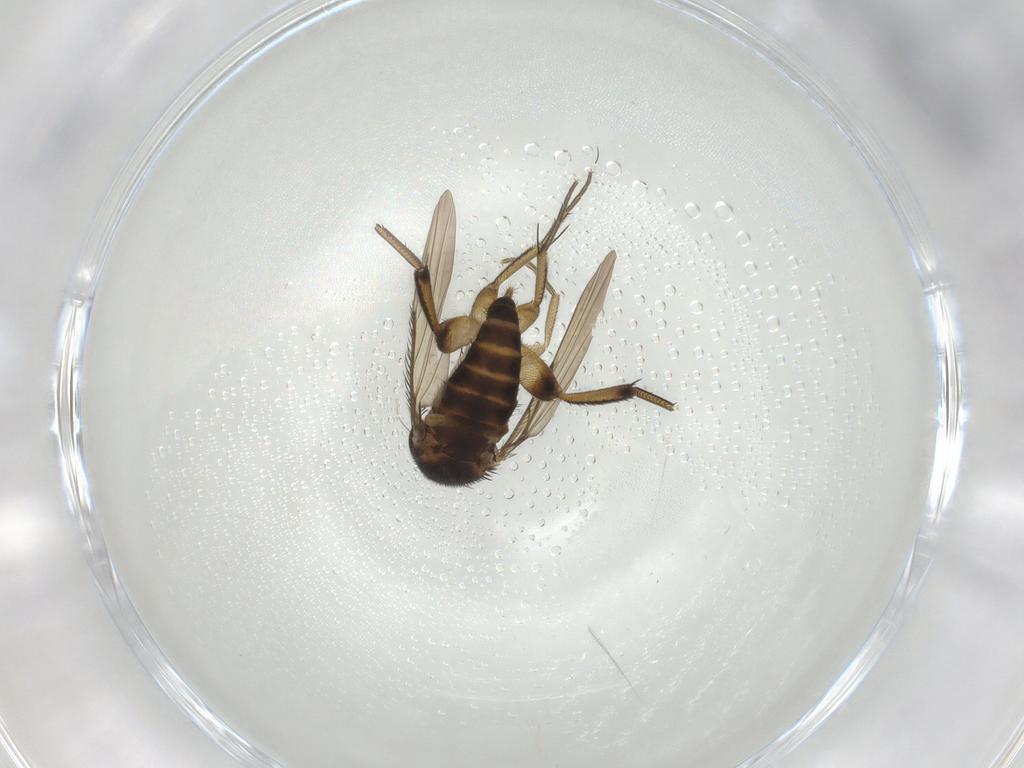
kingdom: Animalia
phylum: Arthropoda
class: Insecta
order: Diptera
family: Phoridae
